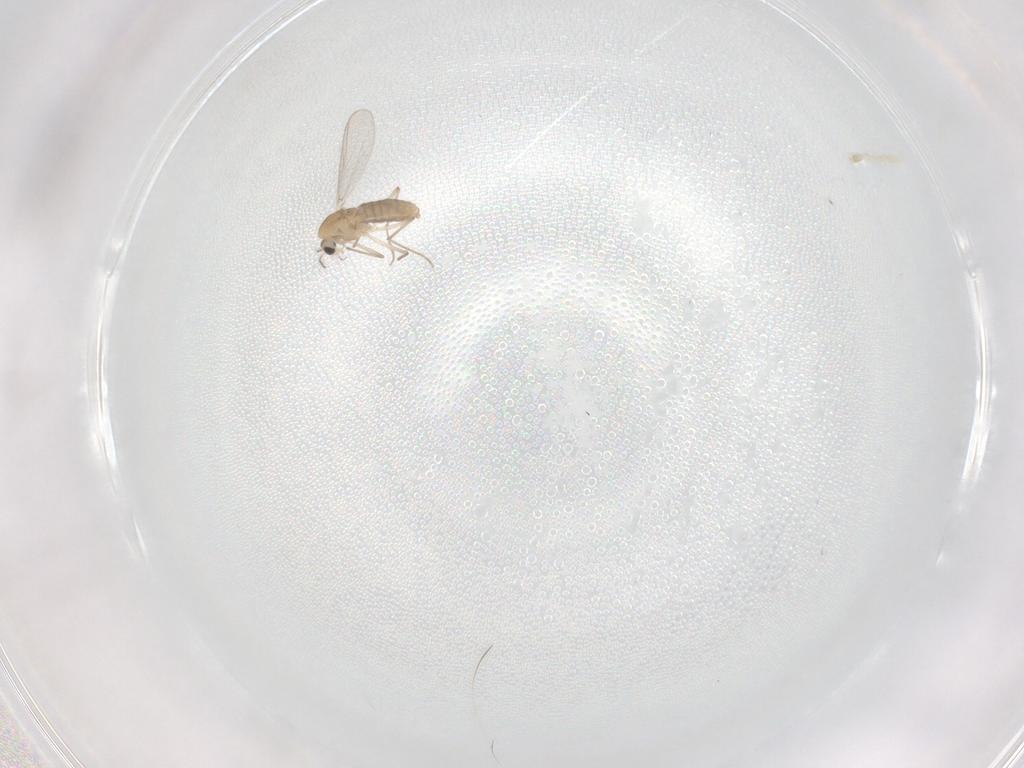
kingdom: Animalia
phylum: Arthropoda
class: Insecta
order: Diptera
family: Chironomidae
